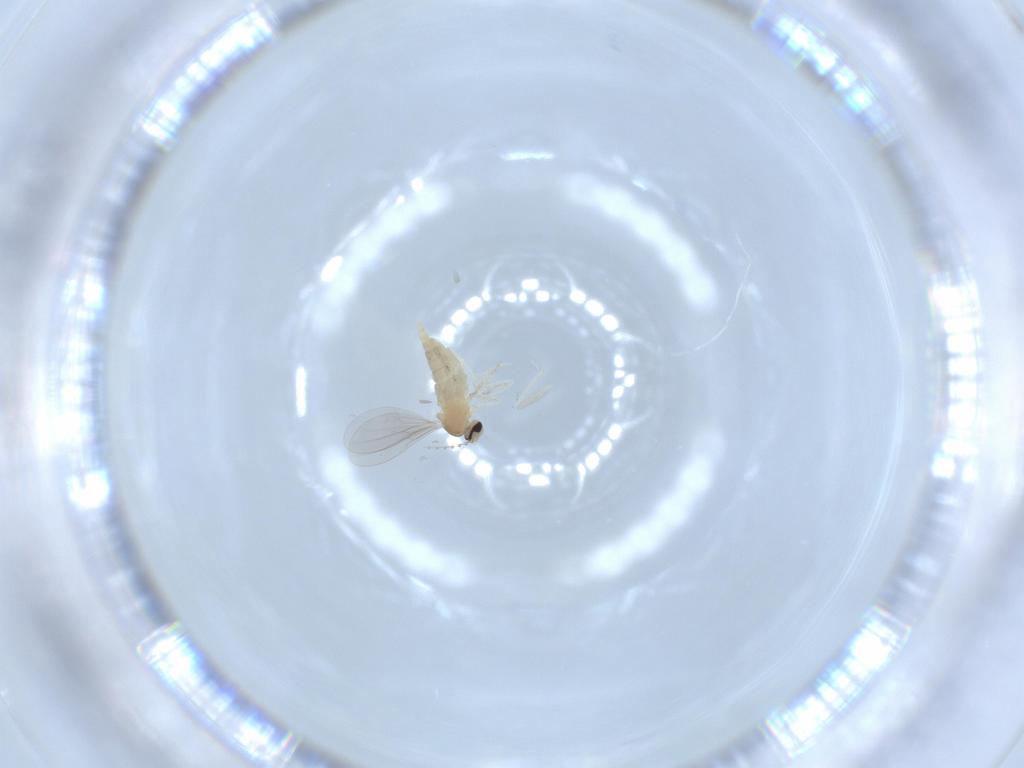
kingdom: Animalia
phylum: Arthropoda
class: Insecta
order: Diptera
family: Cecidomyiidae
